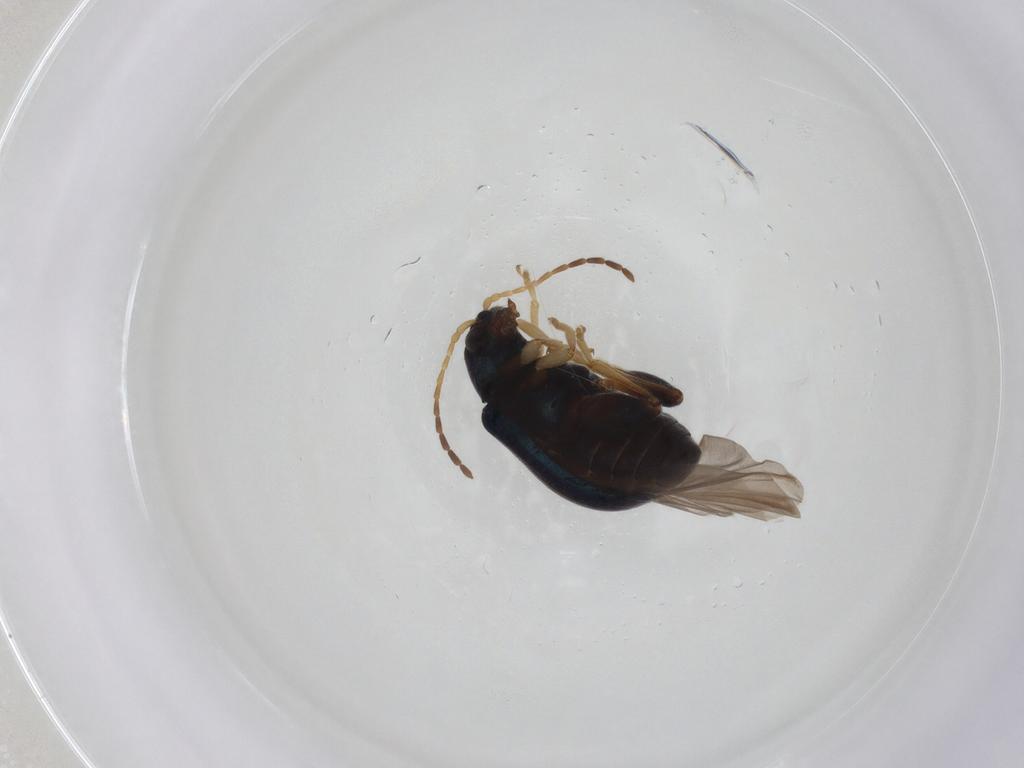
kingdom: Animalia
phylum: Arthropoda
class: Insecta
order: Coleoptera
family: Chrysomelidae
